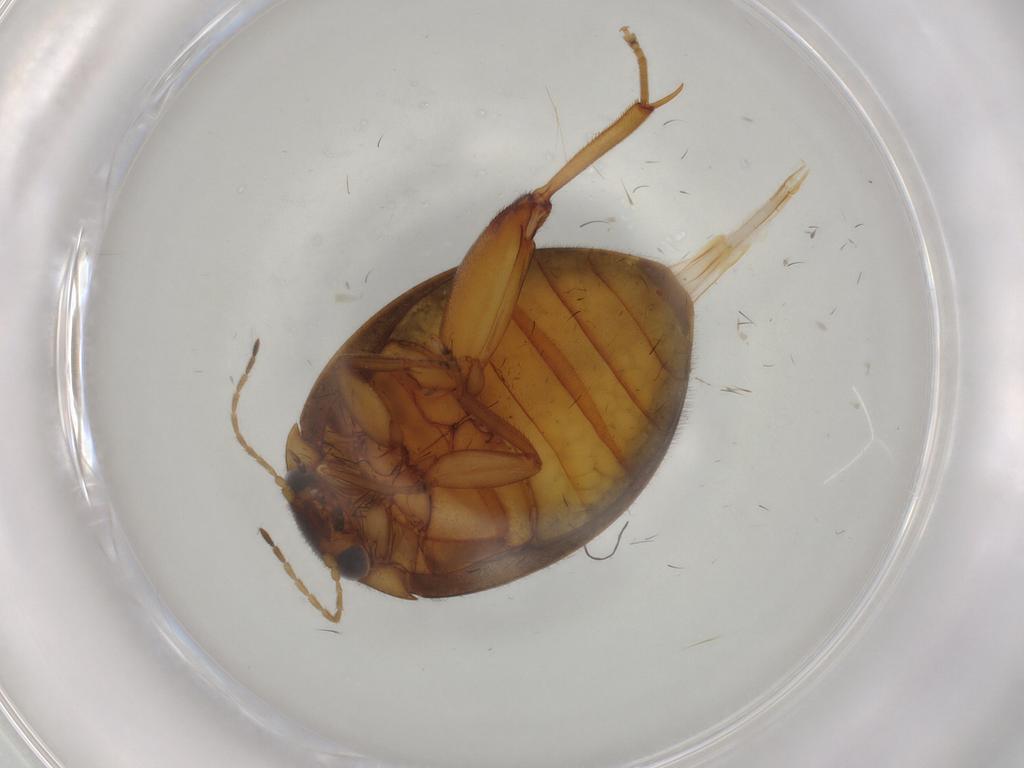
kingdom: Animalia
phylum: Arthropoda
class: Insecta
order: Coleoptera
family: Scirtidae
